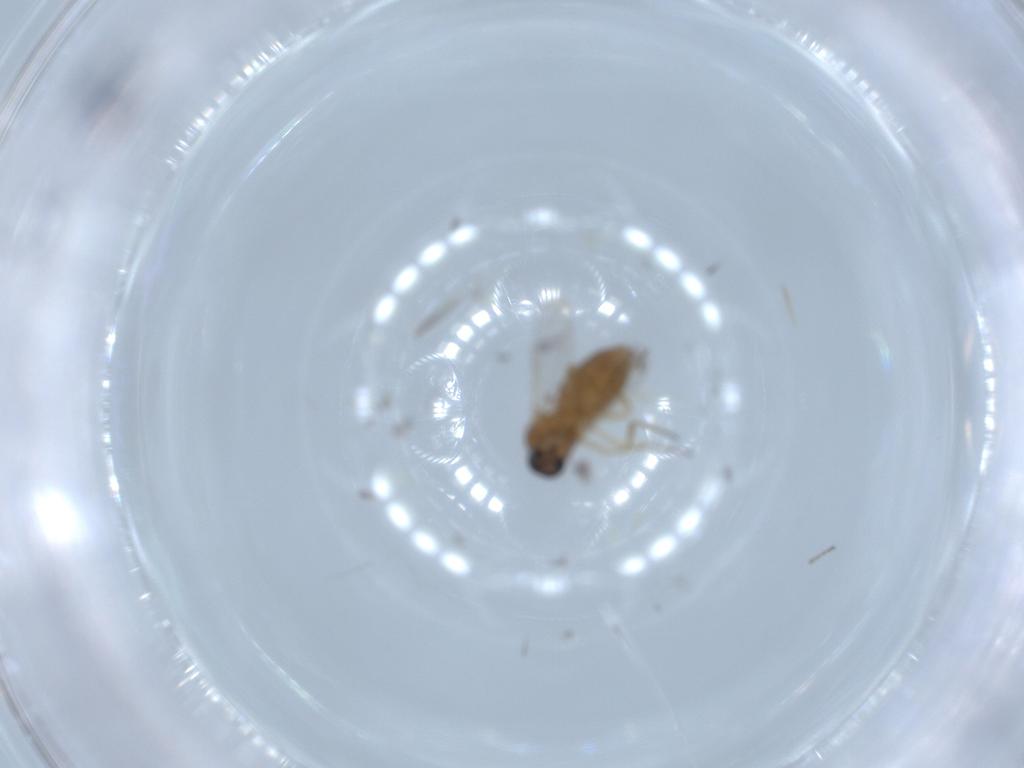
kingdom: Animalia
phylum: Arthropoda
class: Insecta
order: Diptera
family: Ceratopogonidae
